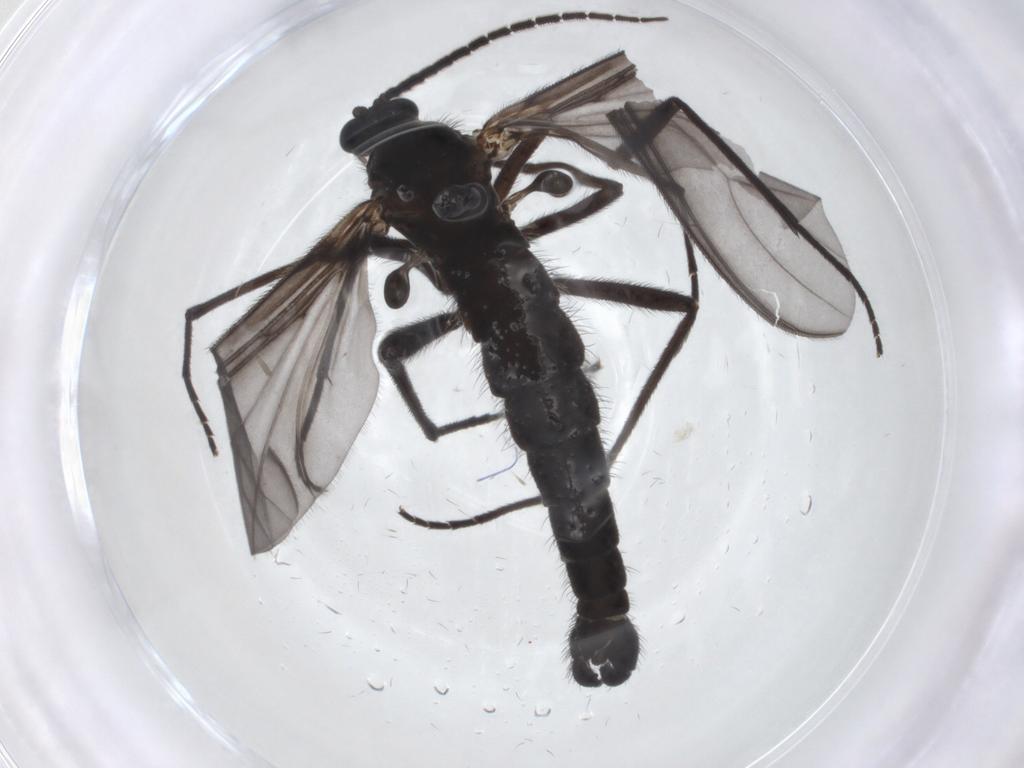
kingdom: Animalia
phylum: Arthropoda
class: Insecta
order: Diptera
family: Sciaridae
